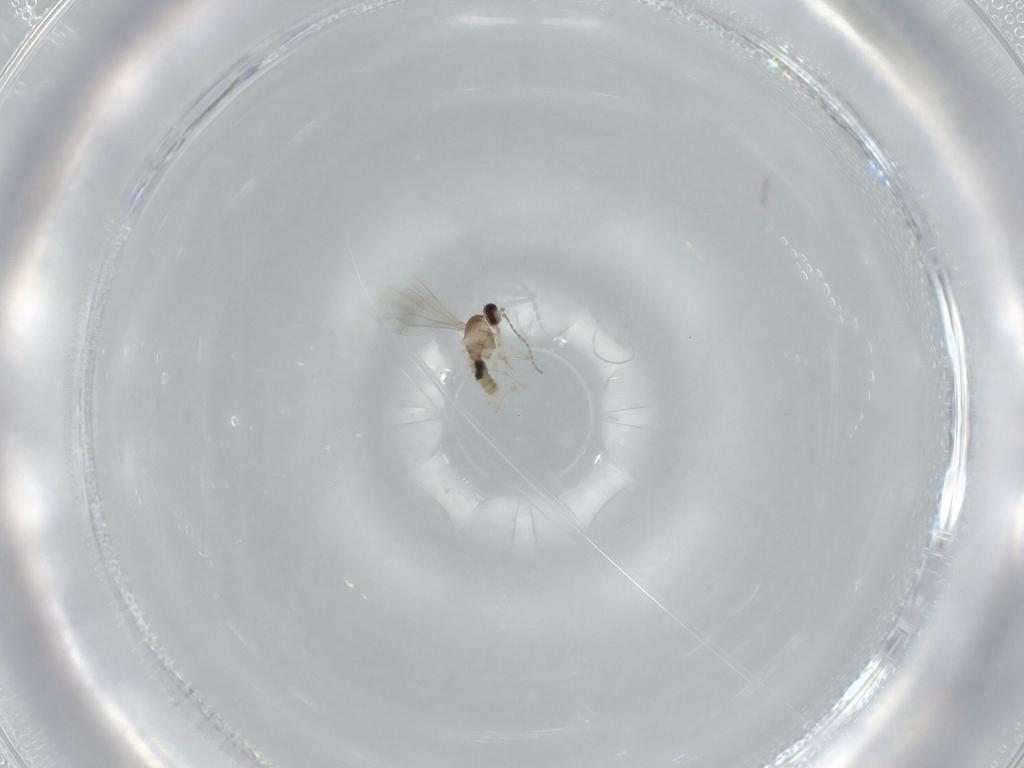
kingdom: Animalia
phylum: Arthropoda
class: Insecta
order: Diptera
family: Cecidomyiidae
